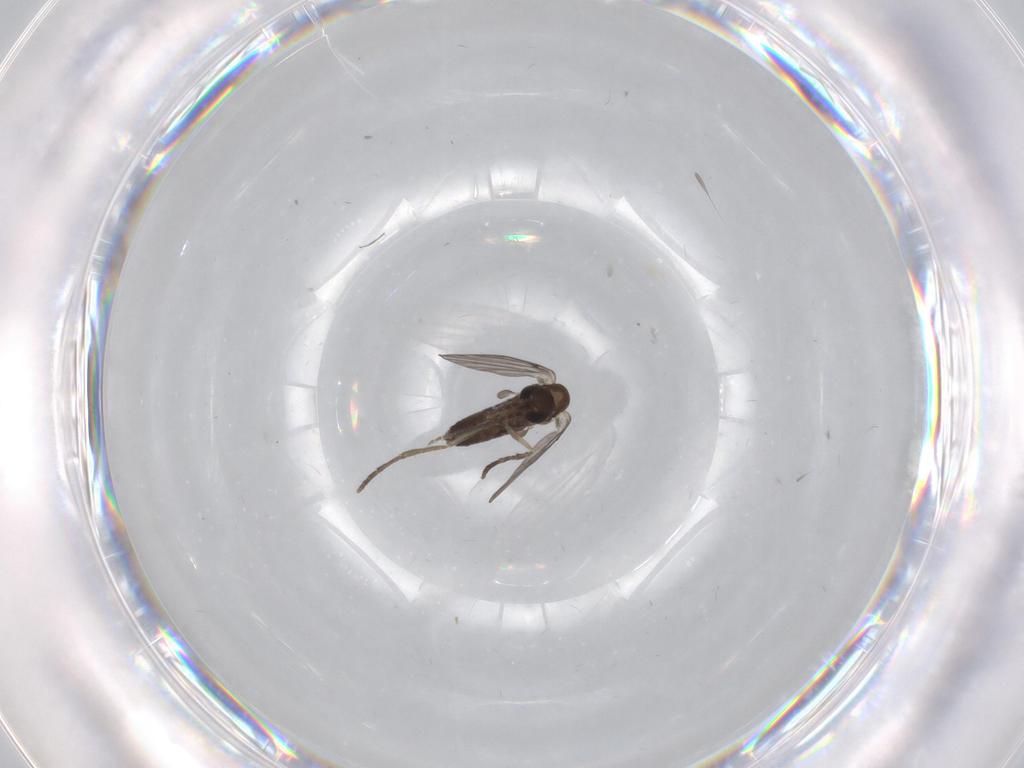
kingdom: Animalia
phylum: Arthropoda
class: Insecta
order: Diptera
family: Psychodidae
